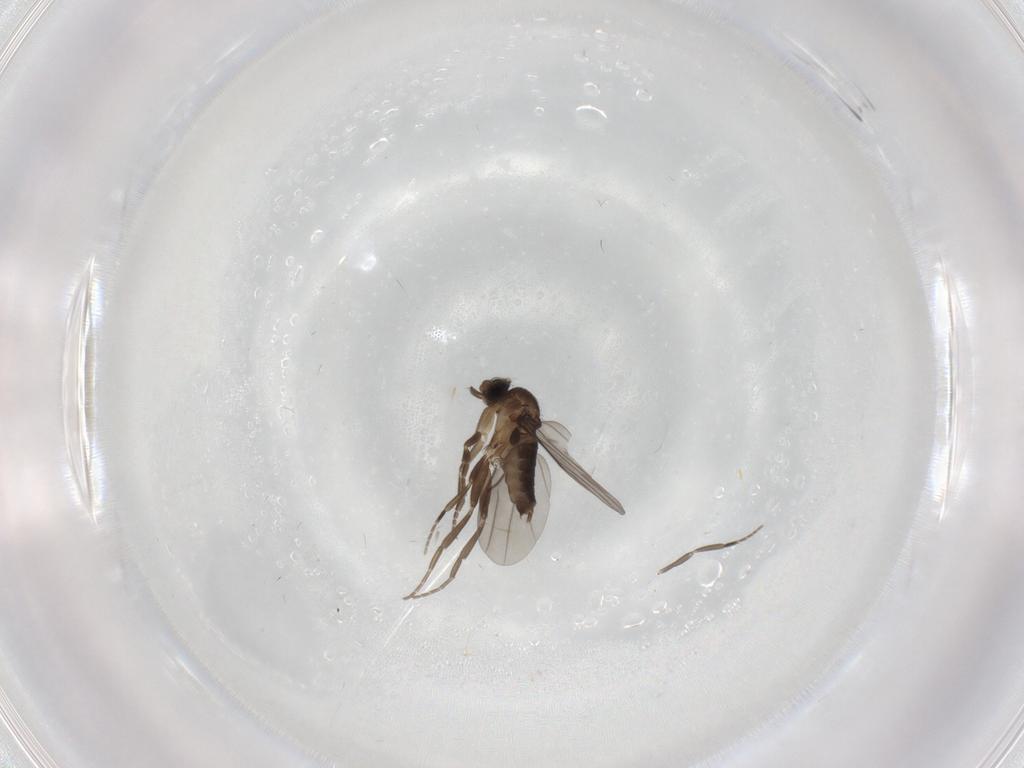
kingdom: Animalia
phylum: Arthropoda
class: Insecta
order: Diptera
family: Phoridae
